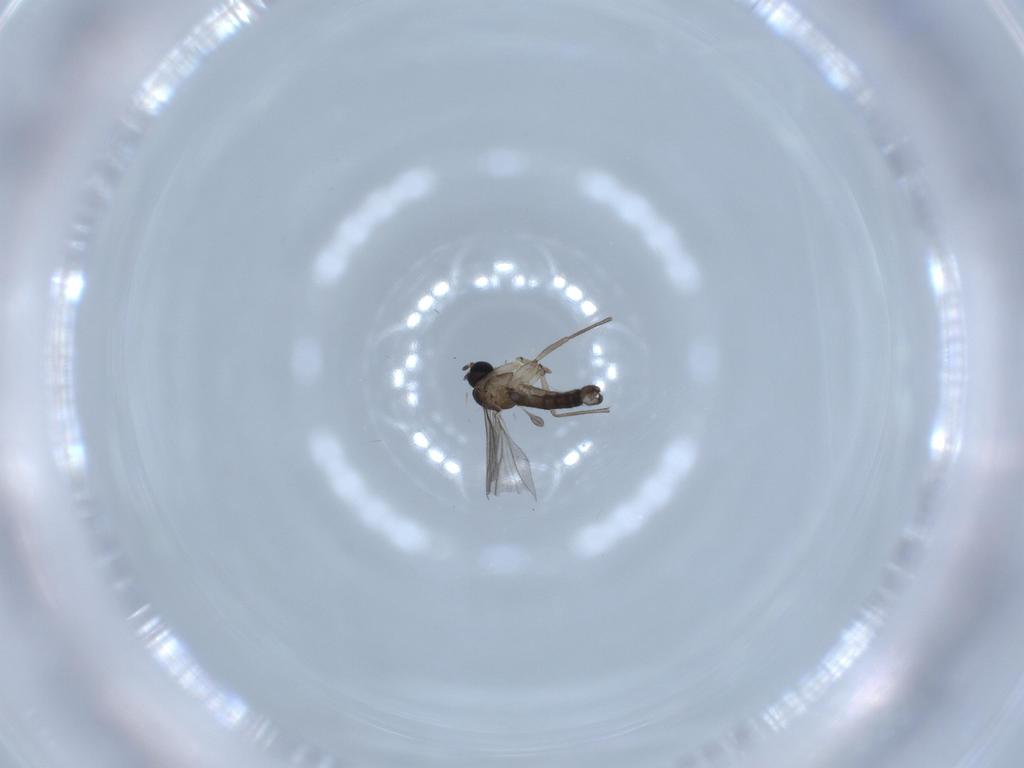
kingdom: Animalia
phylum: Arthropoda
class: Insecta
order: Diptera
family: Sciaridae
